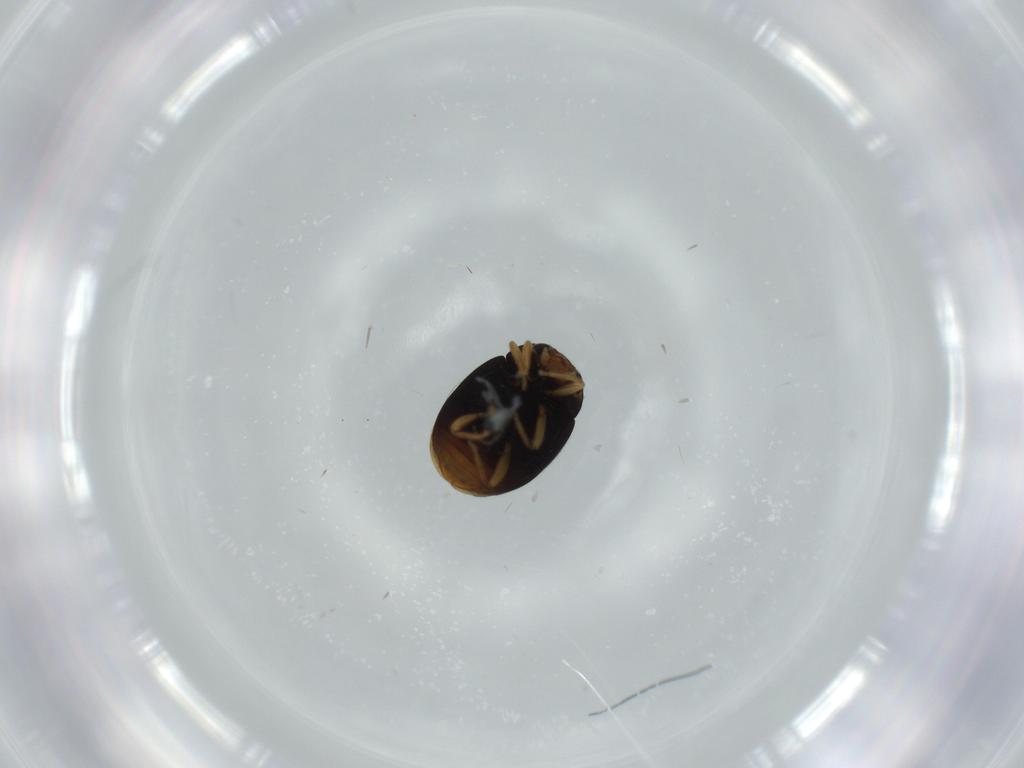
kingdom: Animalia
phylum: Arthropoda
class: Insecta
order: Coleoptera
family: Coccinellidae
